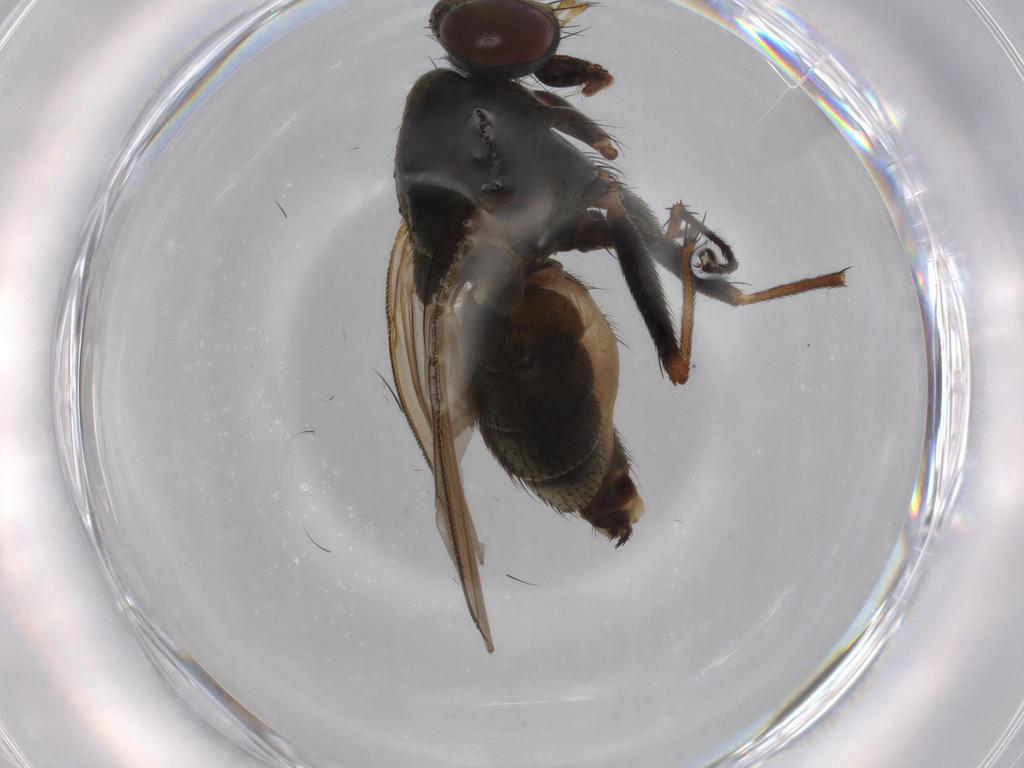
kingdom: Animalia
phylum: Arthropoda
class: Insecta
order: Diptera
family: Muscidae
